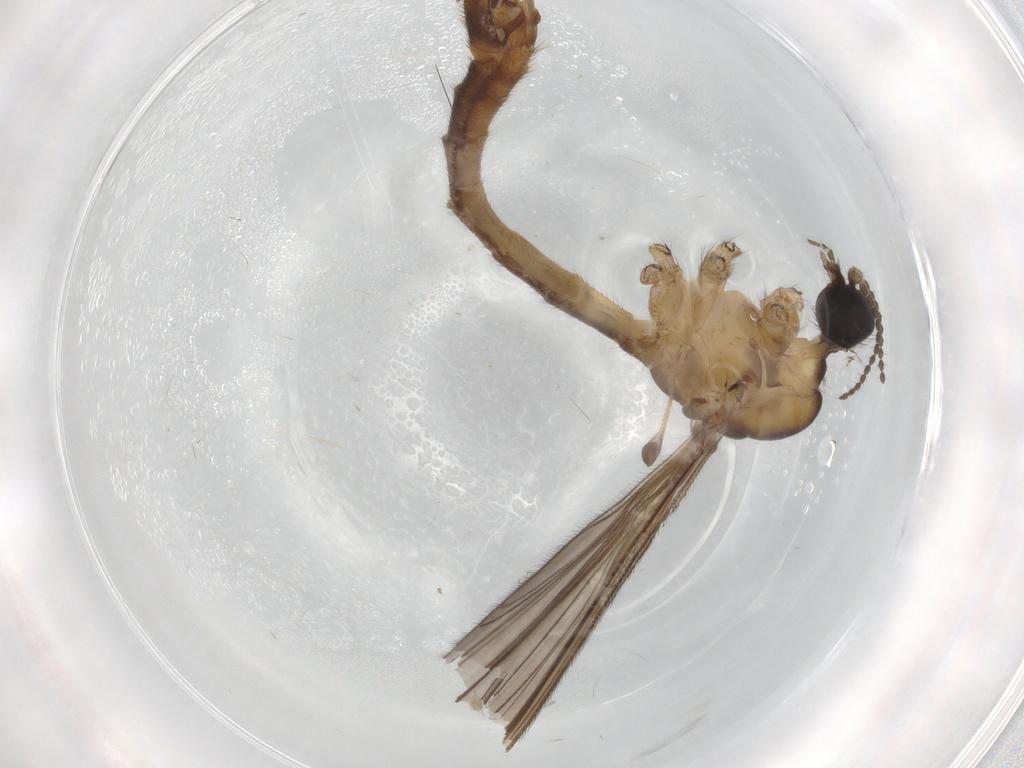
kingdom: Animalia
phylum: Arthropoda
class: Insecta
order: Diptera
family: Limoniidae
